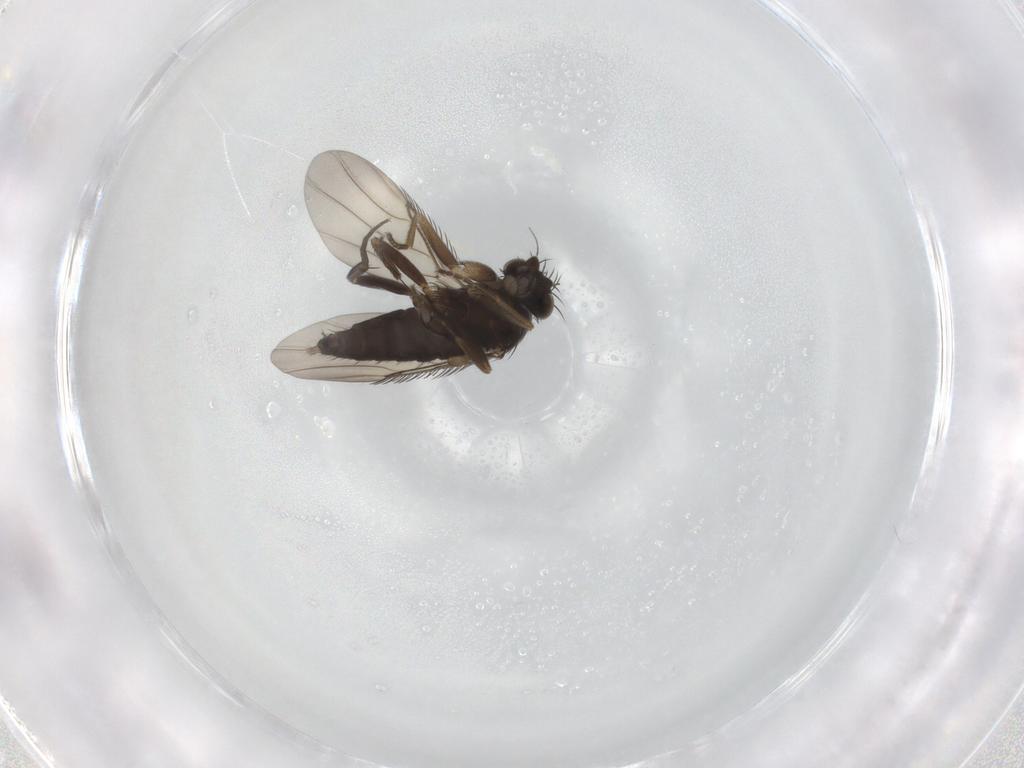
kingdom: Animalia
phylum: Arthropoda
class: Insecta
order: Diptera
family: Phoridae
